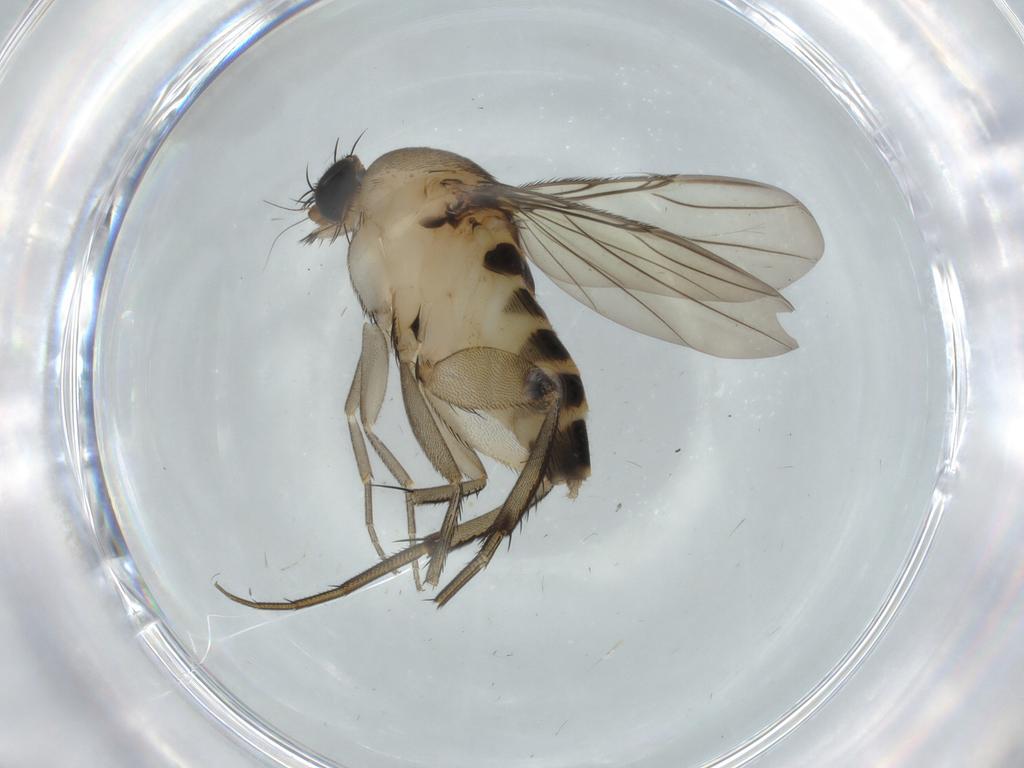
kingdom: Animalia
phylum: Arthropoda
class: Insecta
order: Diptera
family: Phoridae
